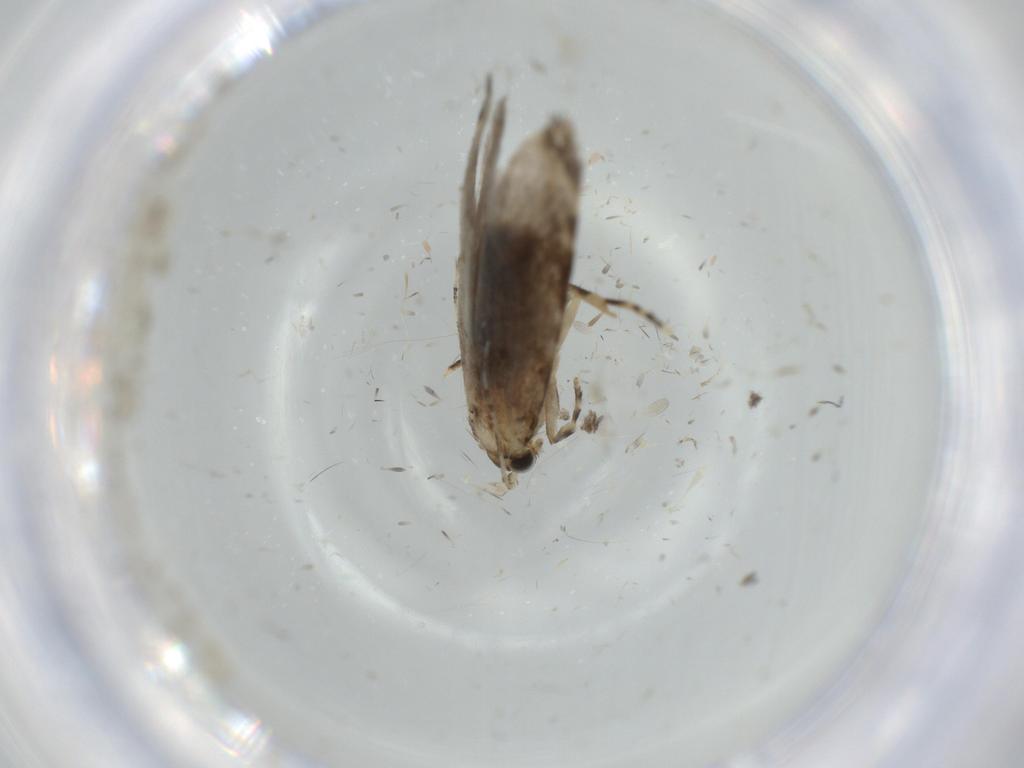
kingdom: Animalia
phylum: Arthropoda
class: Insecta
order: Lepidoptera
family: Tineidae
